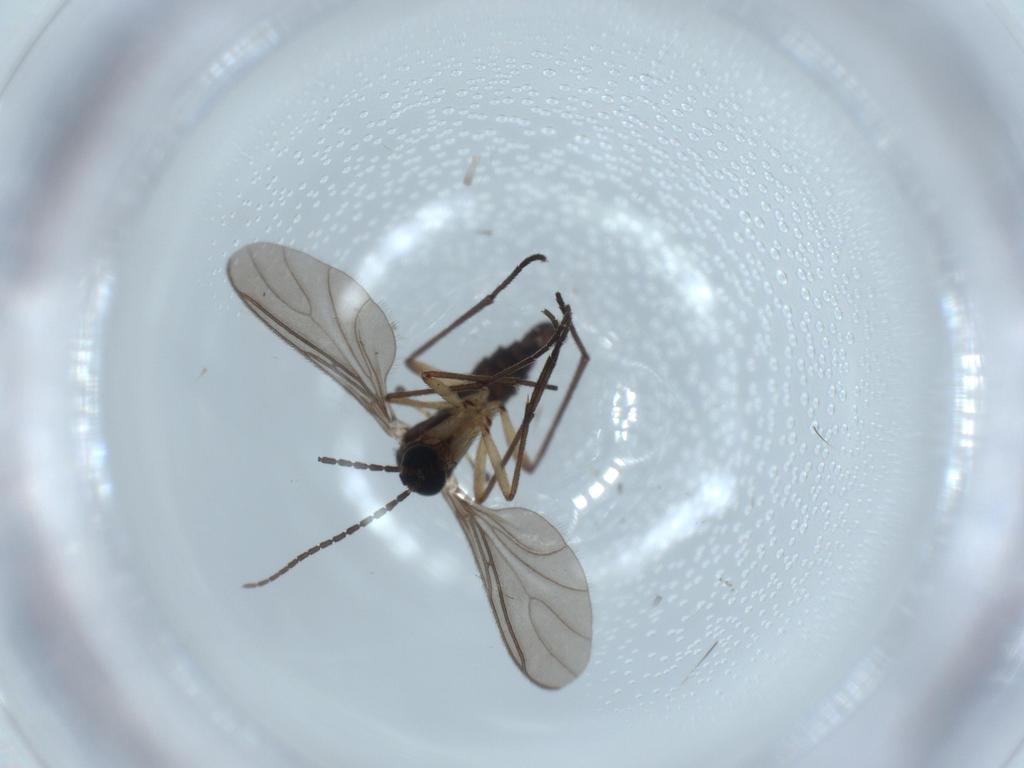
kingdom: Animalia
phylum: Arthropoda
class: Insecta
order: Diptera
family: Sciaridae
